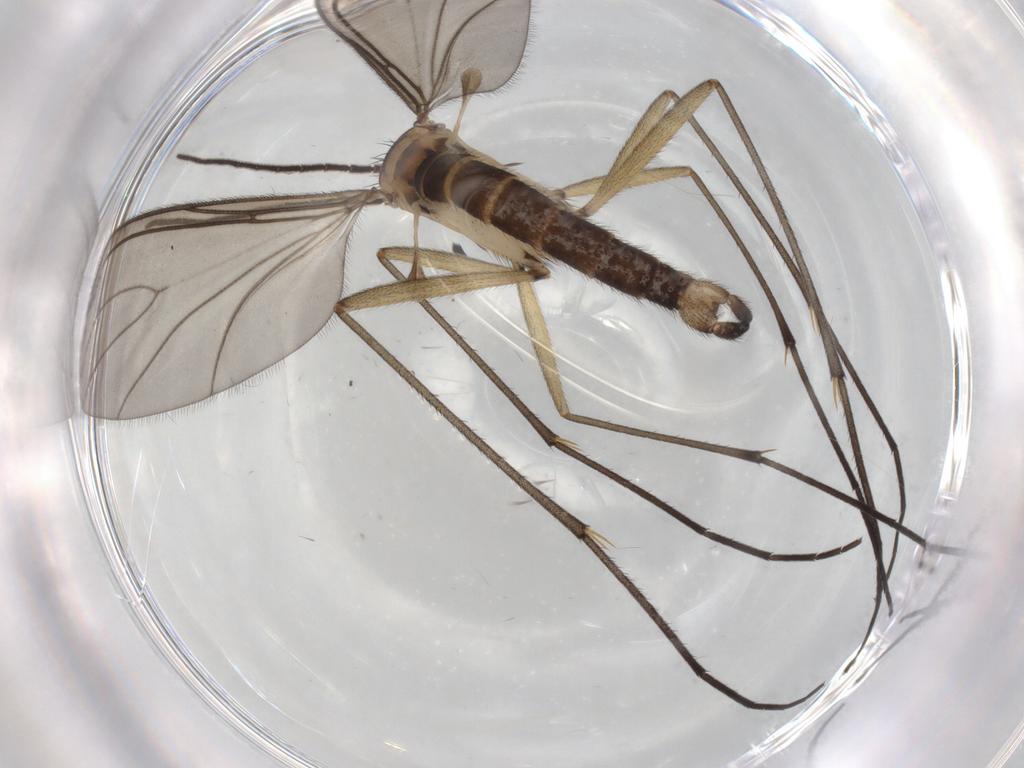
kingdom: Animalia
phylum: Arthropoda
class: Insecta
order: Diptera
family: Sciaridae
